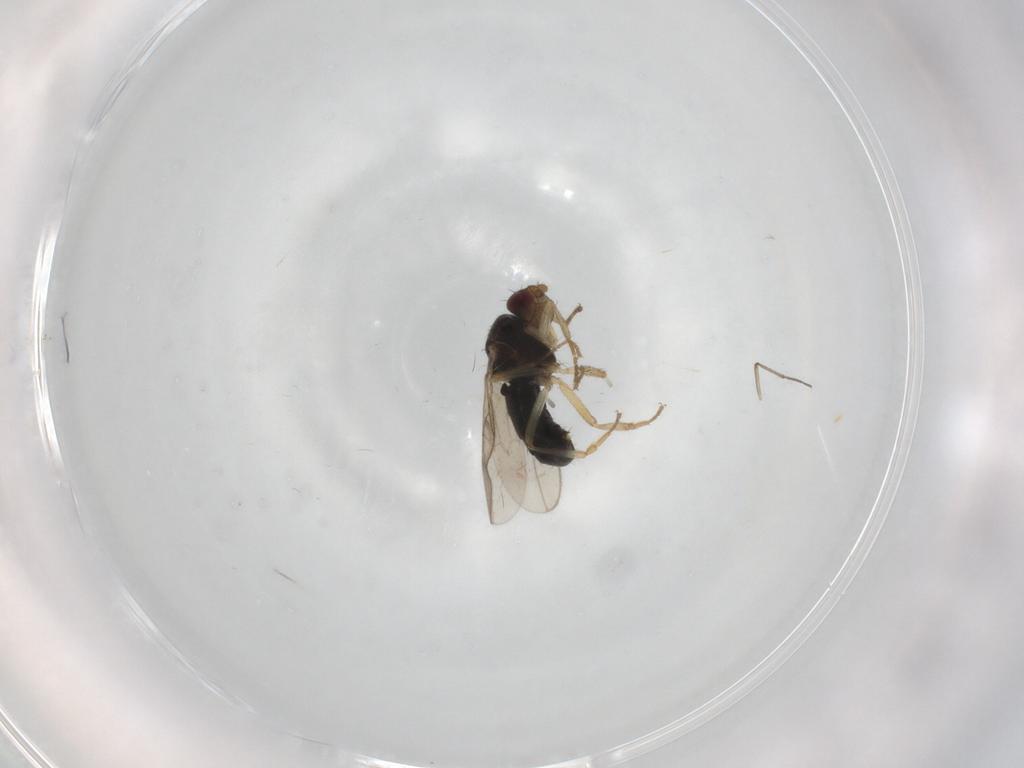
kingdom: Animalia
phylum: Arthropoda
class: Insecta
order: Diptera
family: Sphaeroceridae
